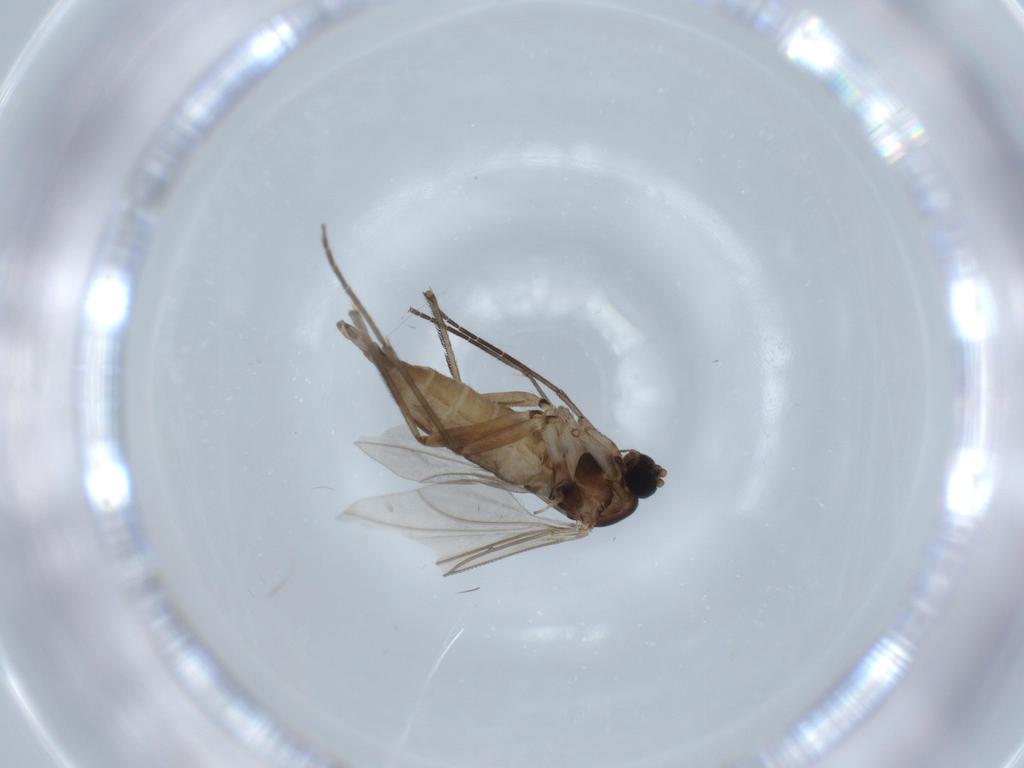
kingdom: Animalia
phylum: Arthropoda
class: Insecta
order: Diptera
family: Sciaridae
